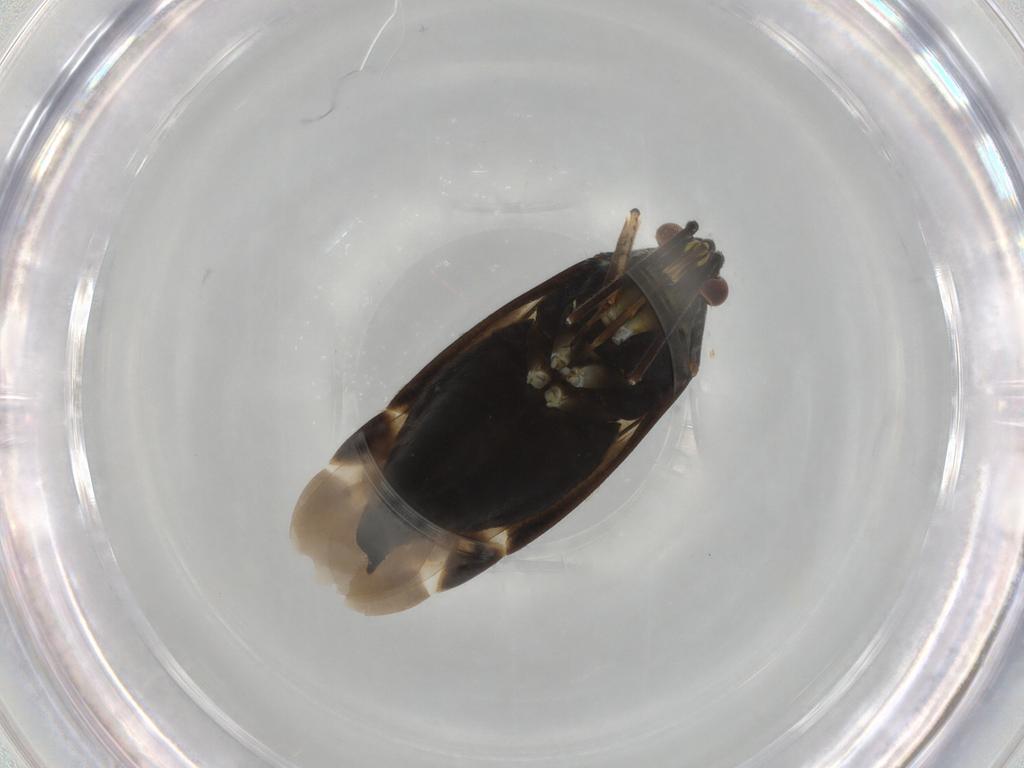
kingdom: Animalia
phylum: Arthropoda
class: Insecta
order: Hemiptera
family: Miridae
